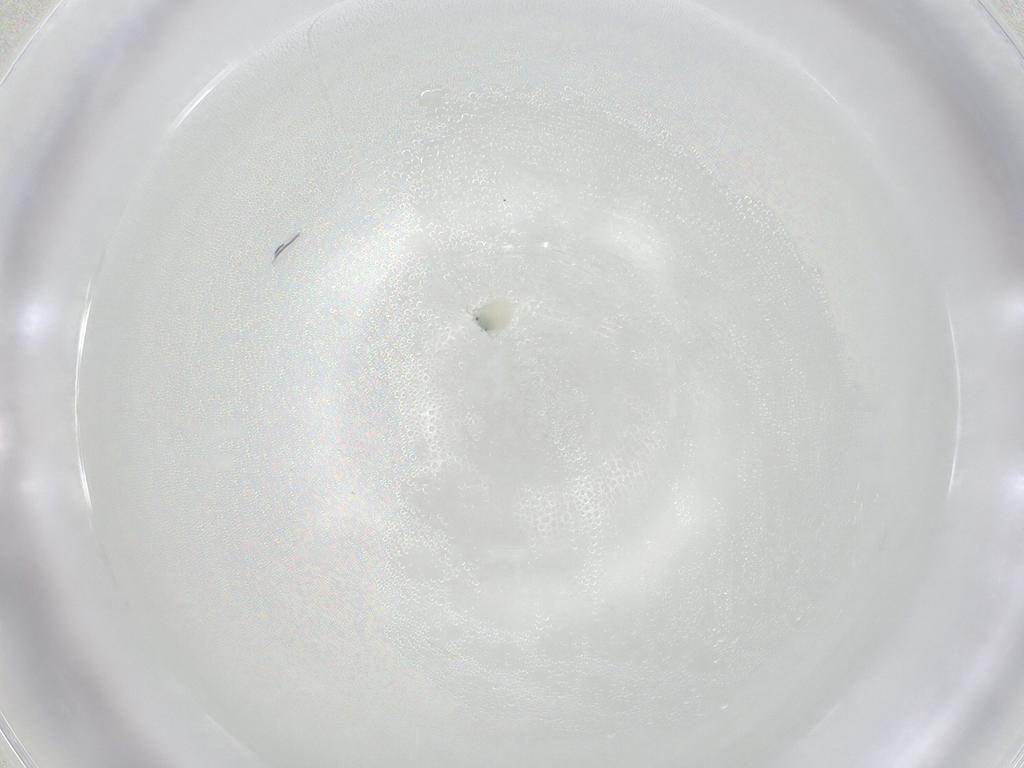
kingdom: Animalia
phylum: Arthropoda
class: Arachnida
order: Trombidiformes
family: Arrenuridae
